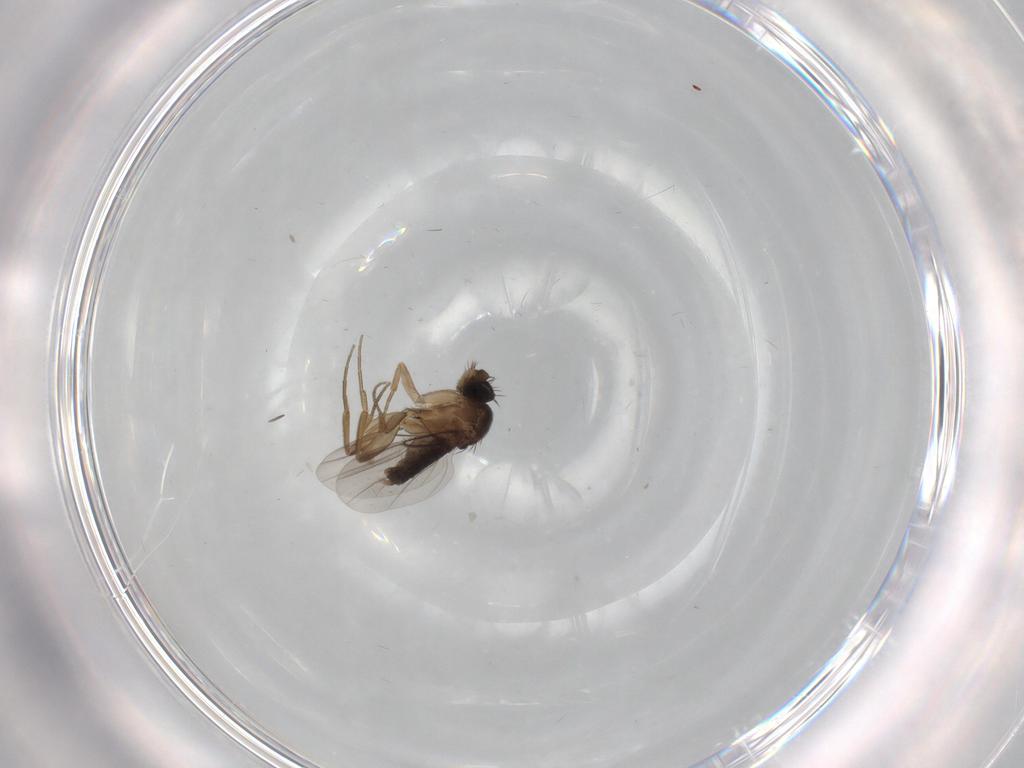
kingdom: Animalia
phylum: Arthropoda
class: Insecta
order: Diptera
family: Phoridae
